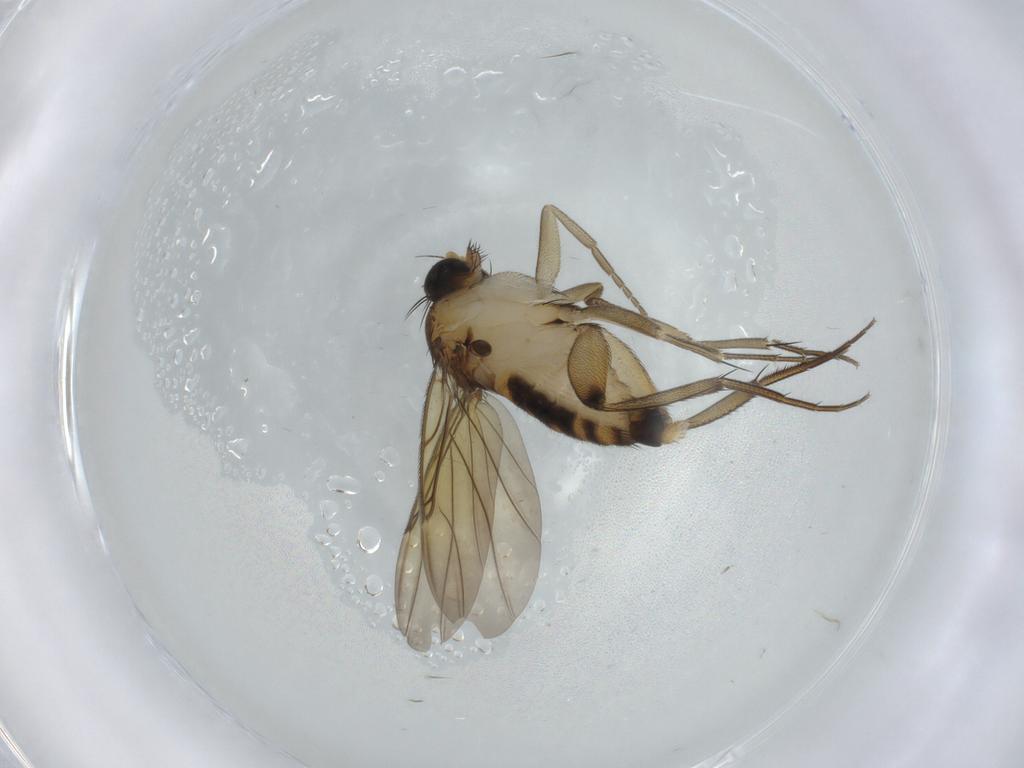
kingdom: Animalia
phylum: Arthropoda
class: Insecta
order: Diptera
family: Phoridae
